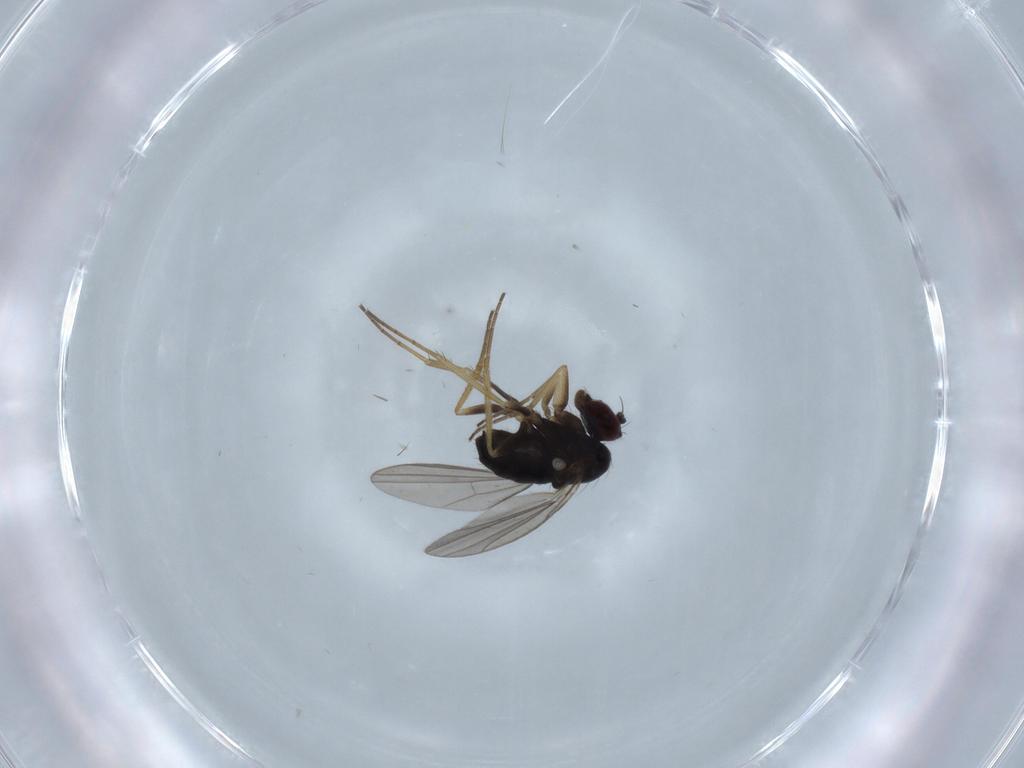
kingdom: Animalia
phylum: Arthropoda
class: Insecta
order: Diptera
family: Dolichopodidae
